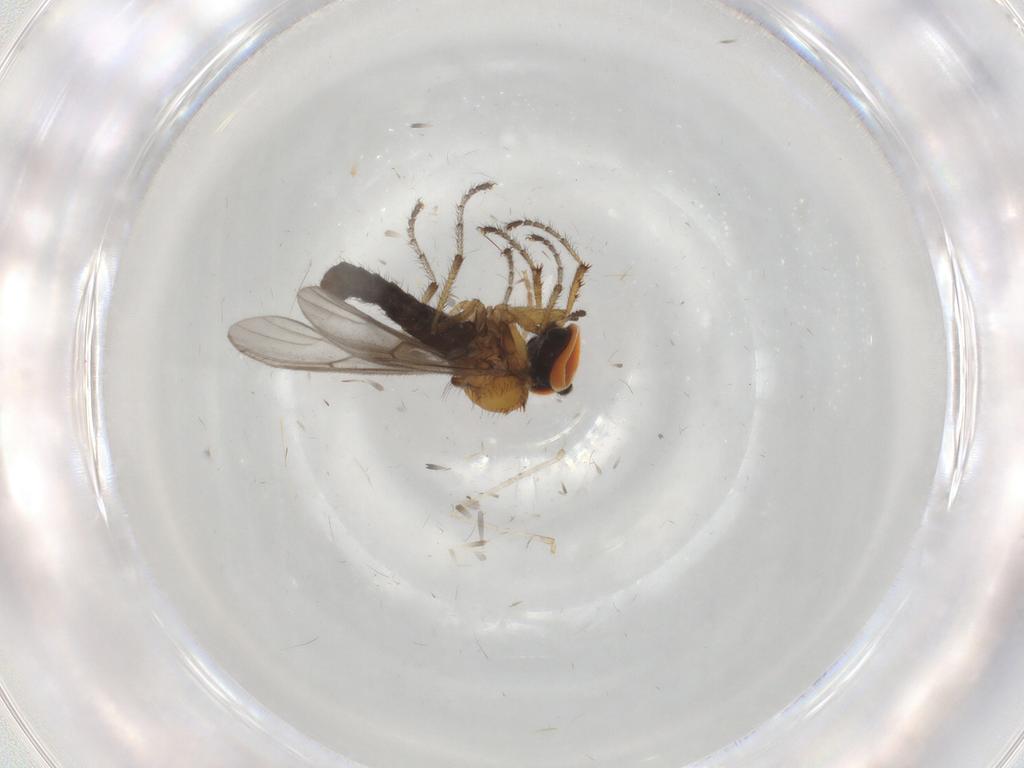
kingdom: Animalia
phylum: Arthropoda
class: Insecta
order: Diptera
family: Bibionidae
